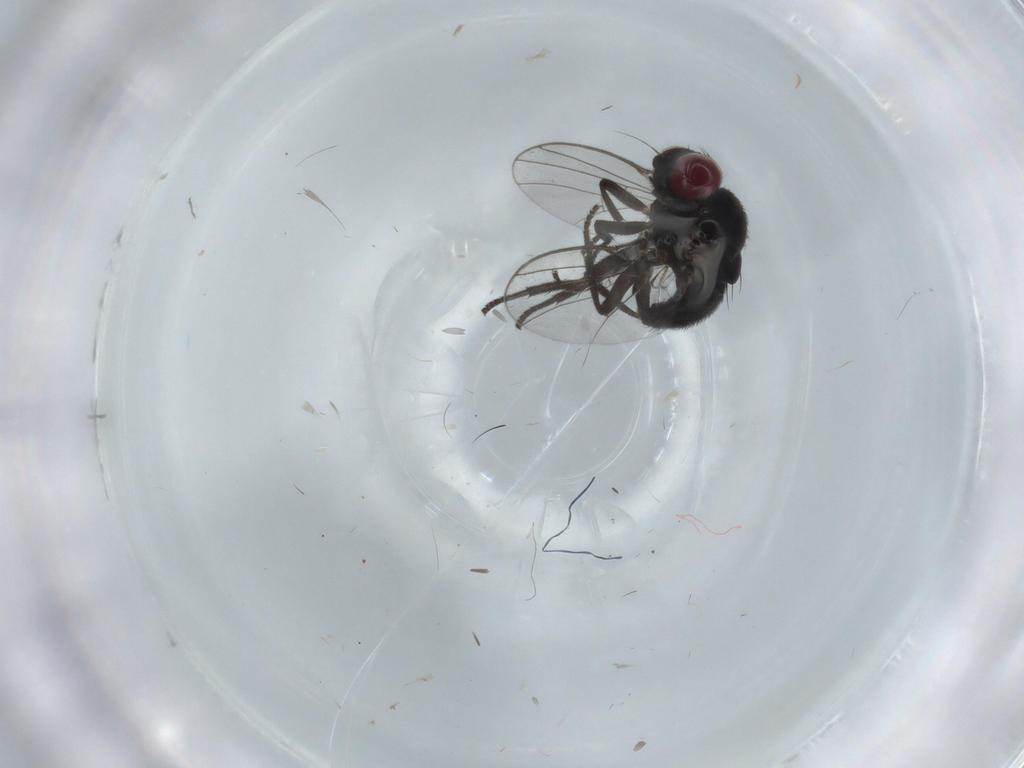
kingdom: Animalia
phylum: Arthropoda
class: Insecta
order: Diptera
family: Agromyzidae
